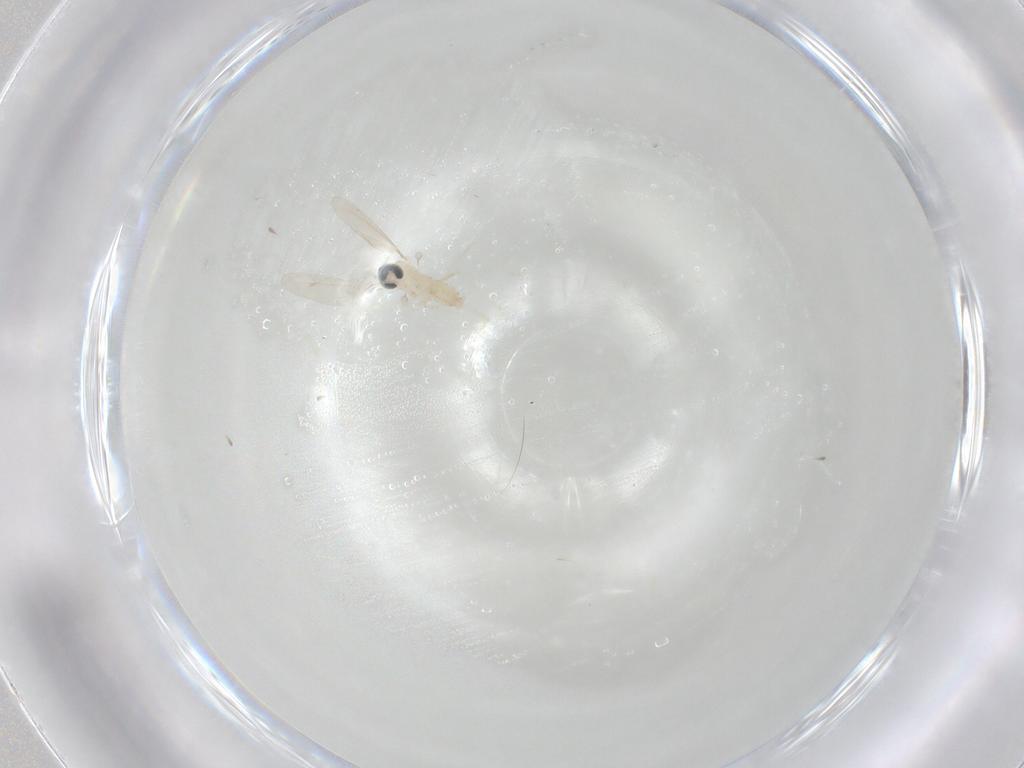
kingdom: Animalia
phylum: Arthropoda
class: Insecta
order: Diptera
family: Cecidomyiidae
